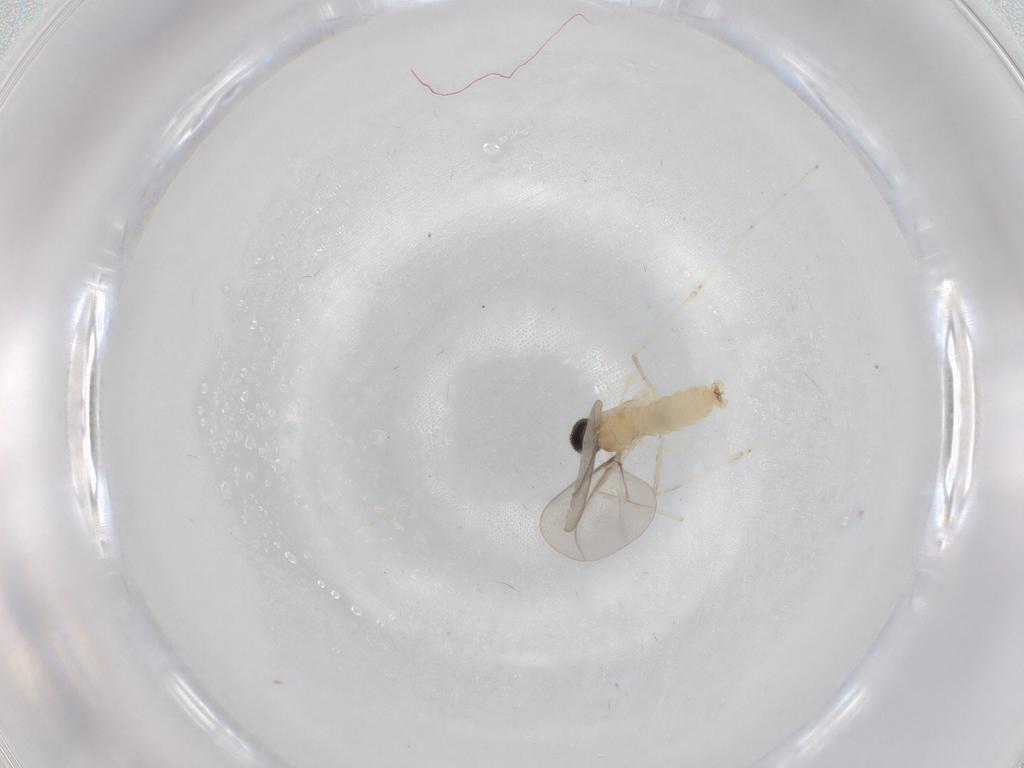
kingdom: Animalia
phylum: Arthropoda
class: Insecta
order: Diptera
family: Cecidomyiidae
